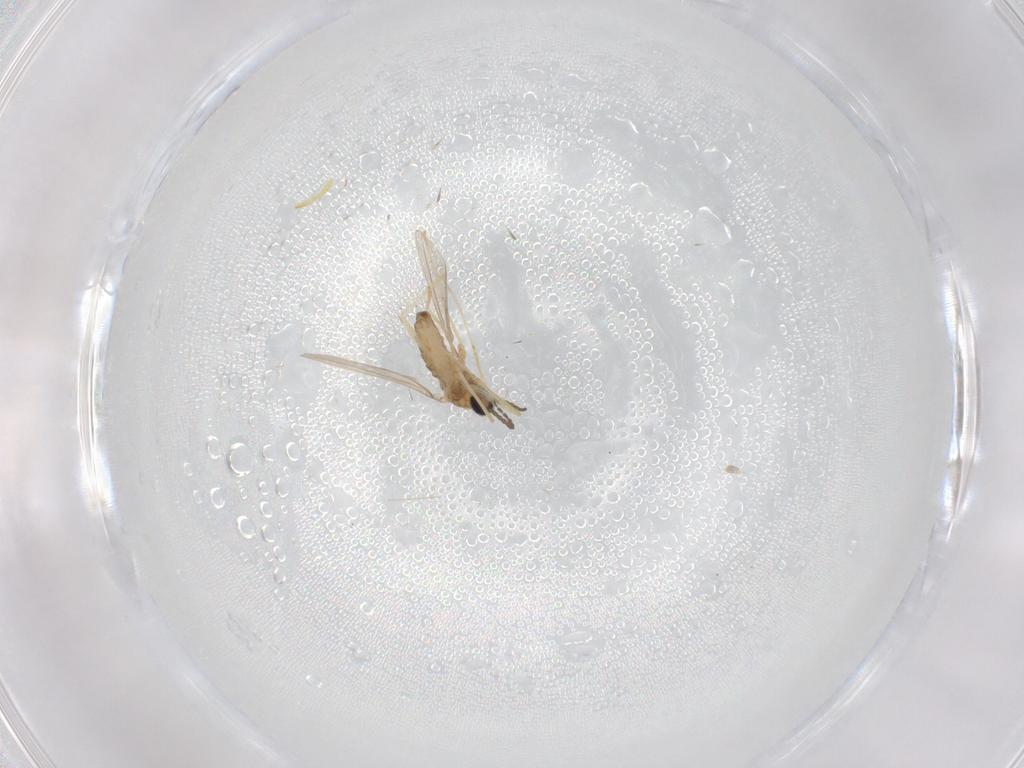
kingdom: Animalia
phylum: Arthropoda
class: Insecta
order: Diptera
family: Cecidomyiidae
